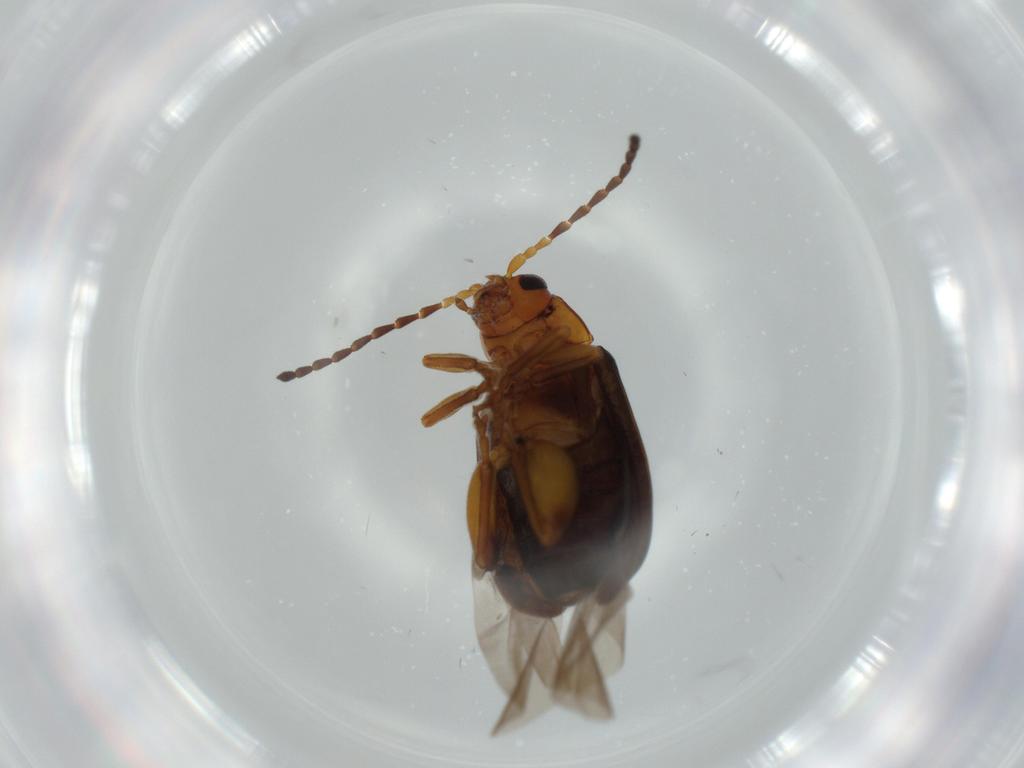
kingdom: Animalia
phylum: Arthropoda
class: Insecta
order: Coleoptera
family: Chrysomelidae
